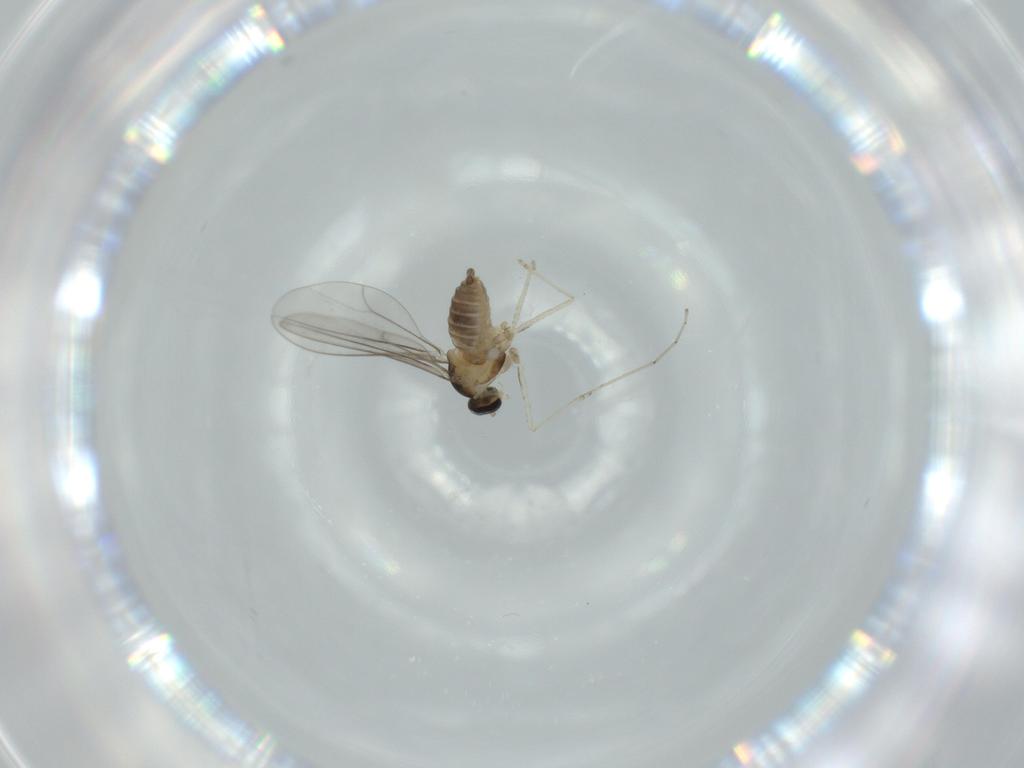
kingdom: Animalia
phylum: Arthropoda
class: Insecta
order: Diptera
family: Cecidomyiidae
